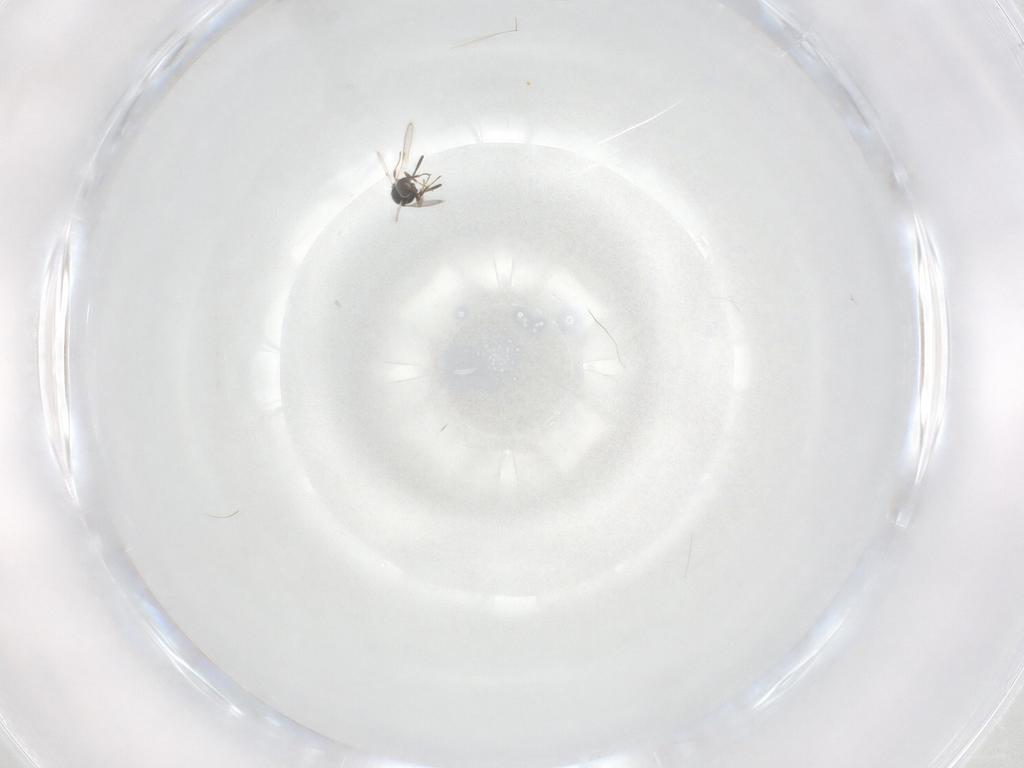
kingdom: Animalia
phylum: Arthropoda
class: Insecta
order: Hymenoptera
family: Scelionidae
